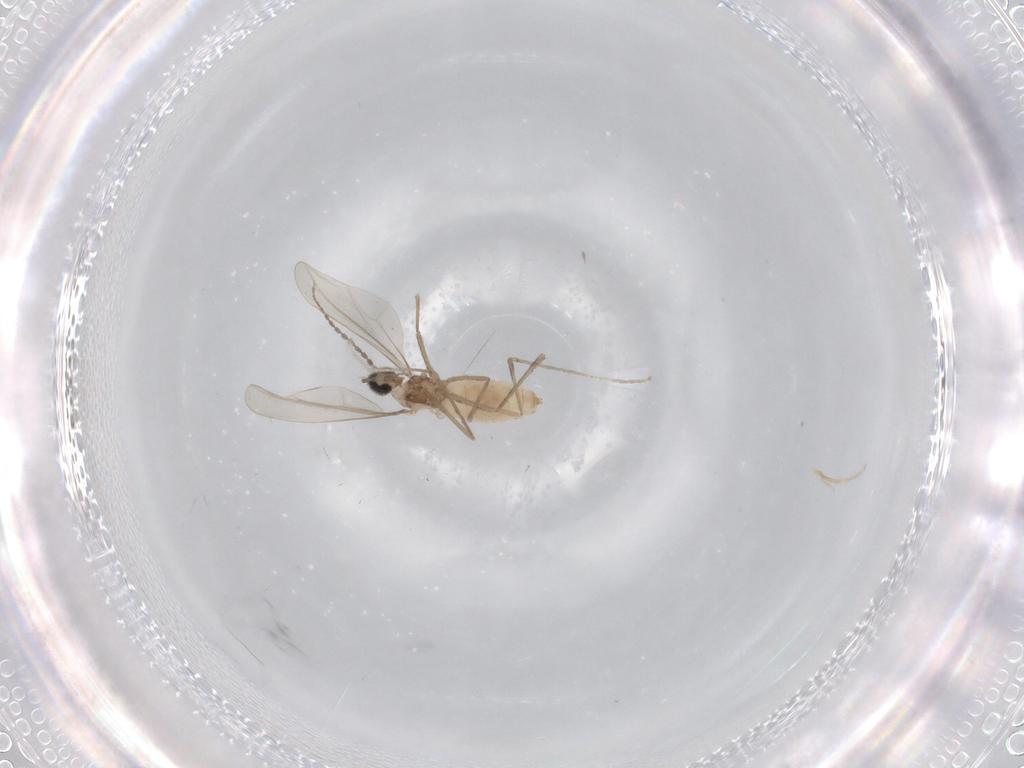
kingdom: Animalia
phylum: Arthropoda
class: Insecta
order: Diptera
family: Cecidomyiidae
